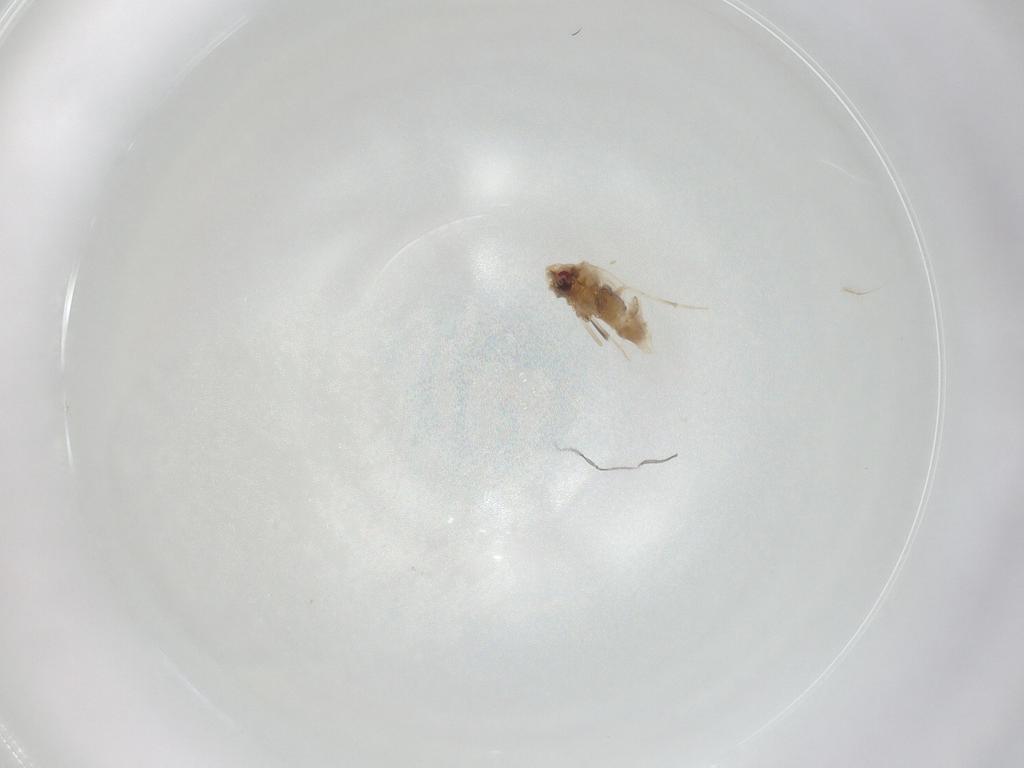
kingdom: Animalia
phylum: Arthropoda
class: Insecta
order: Hemiptera
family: Aleyrodidae
